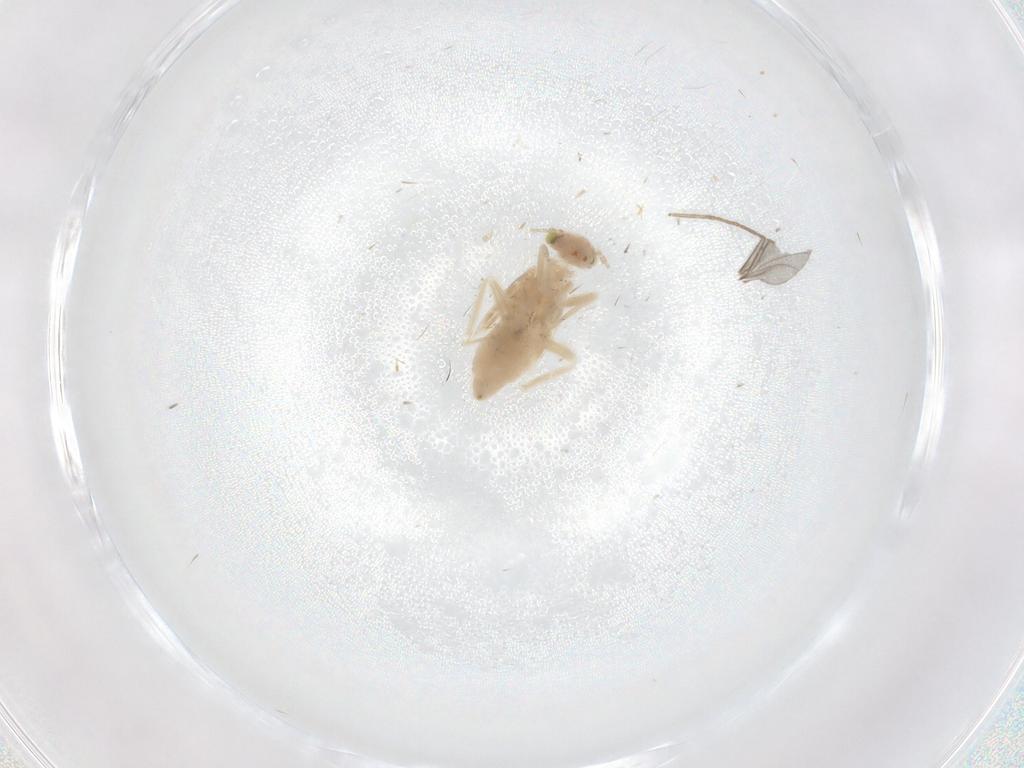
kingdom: Animalia
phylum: Arthropoda
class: Insecta
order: Psocodea
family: Lepidopsocidae
